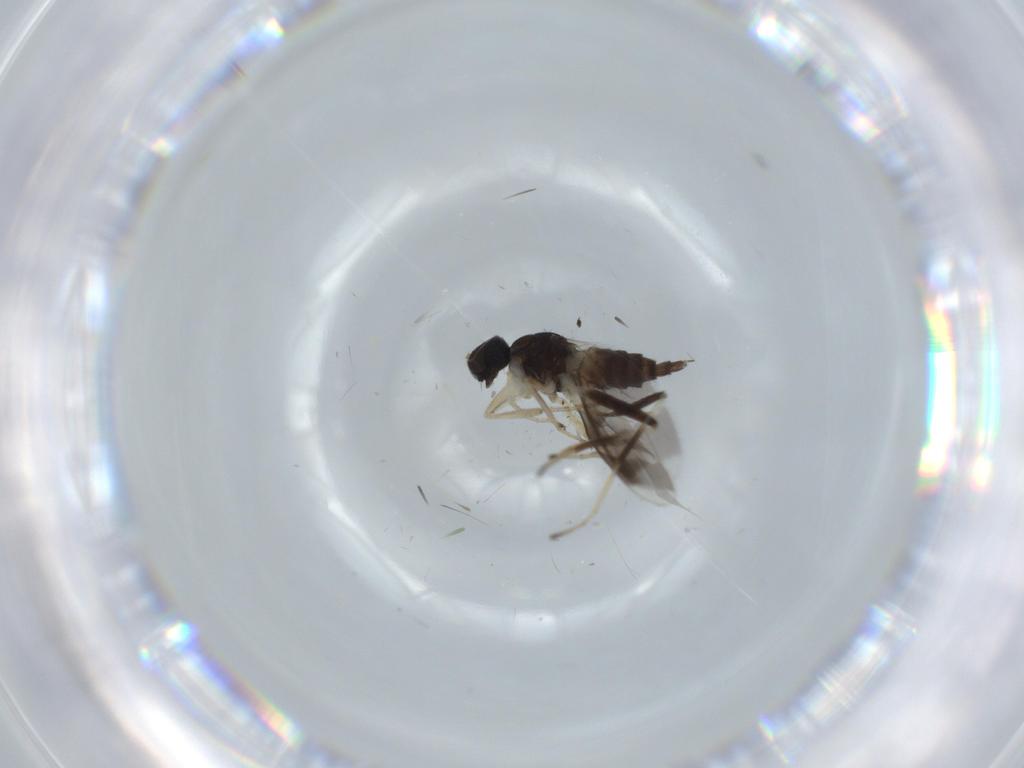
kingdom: Animalia
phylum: Arthropoda
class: Insecta
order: Diptera
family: Hybotidae
